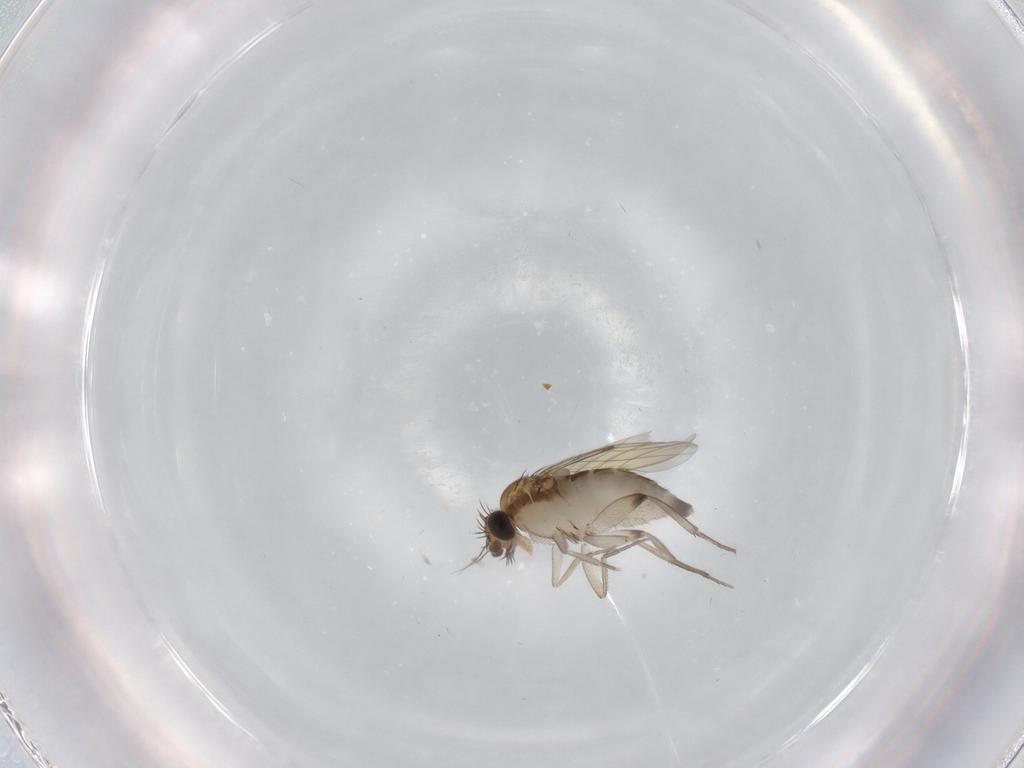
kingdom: Animalia
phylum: Arthropoda
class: Insecta
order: Diptera
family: Phoridae
